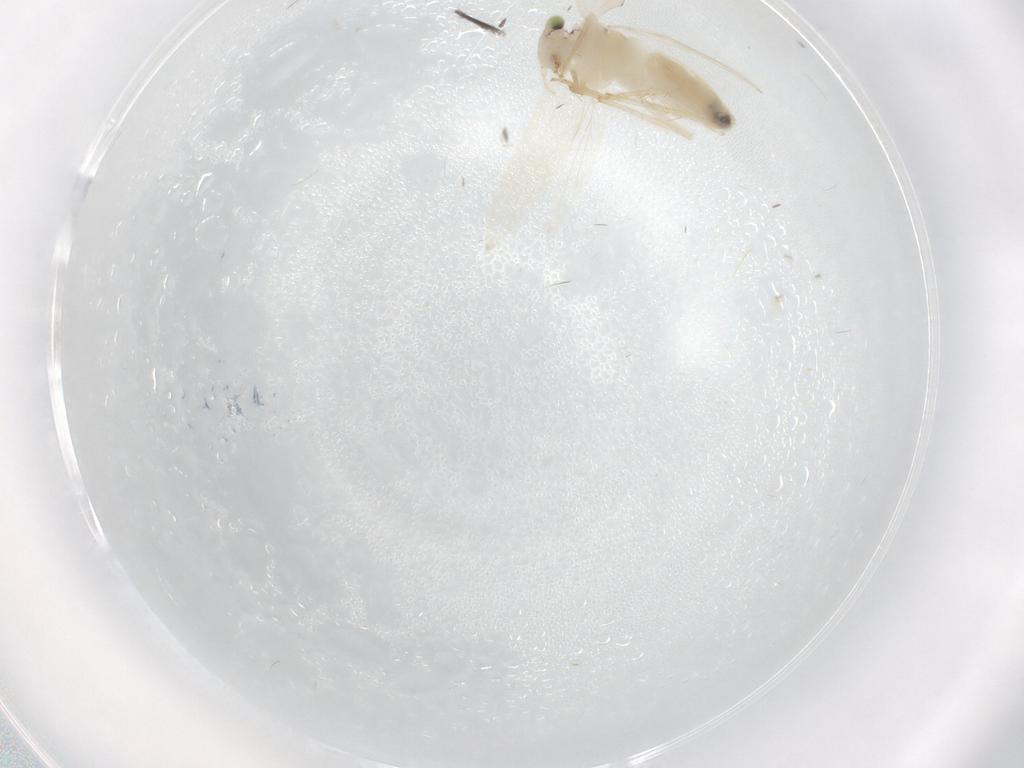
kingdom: Animalia
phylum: Arthropoda
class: Insecta
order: Psocodea
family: Lepidopsocidae
